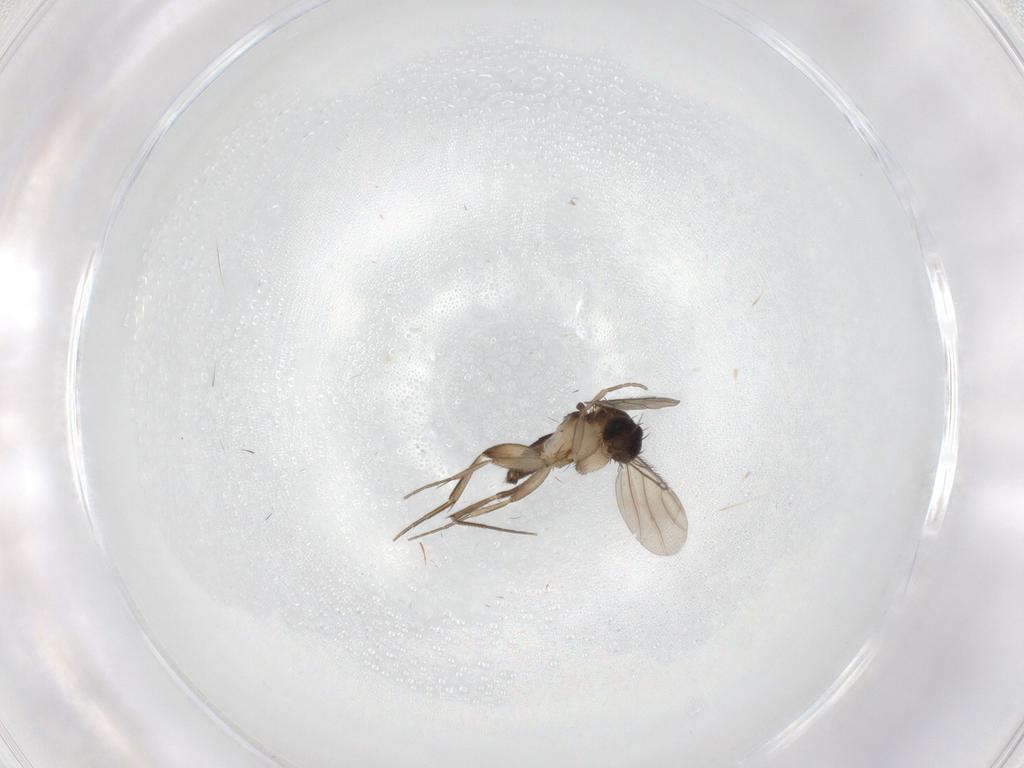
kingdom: Animalia
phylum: Arthropoda
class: Insecta
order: Diptera
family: Phoridae
